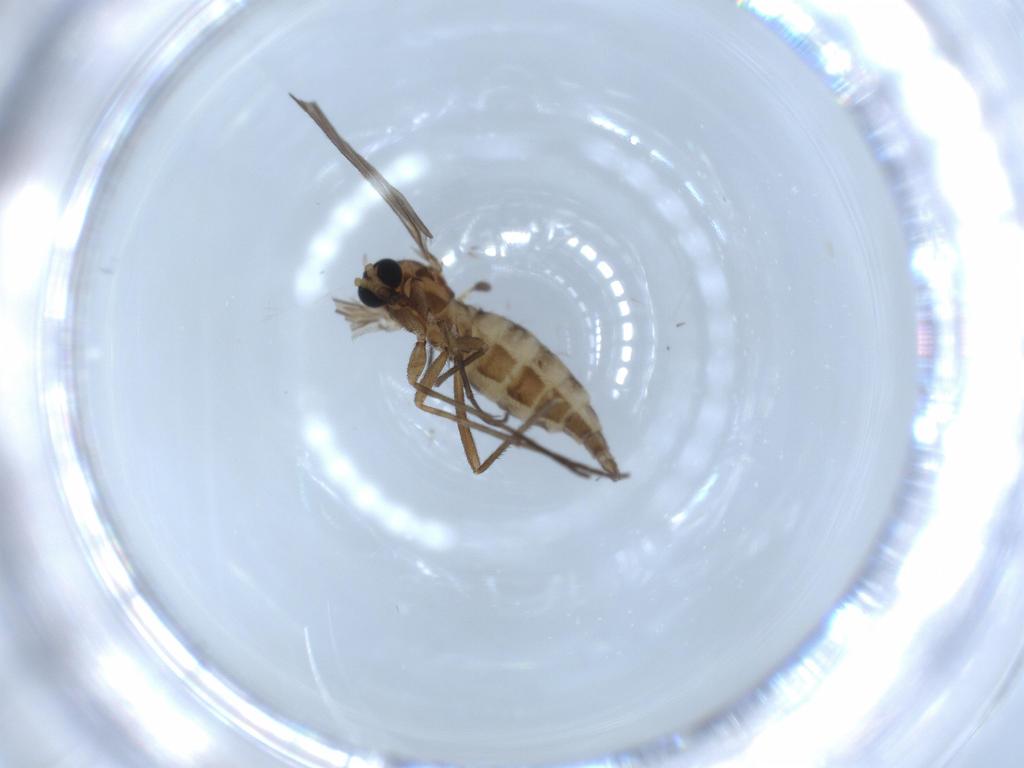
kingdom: Animalia
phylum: Arthropoda
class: Insecta
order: Diptera
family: Sciaridae
